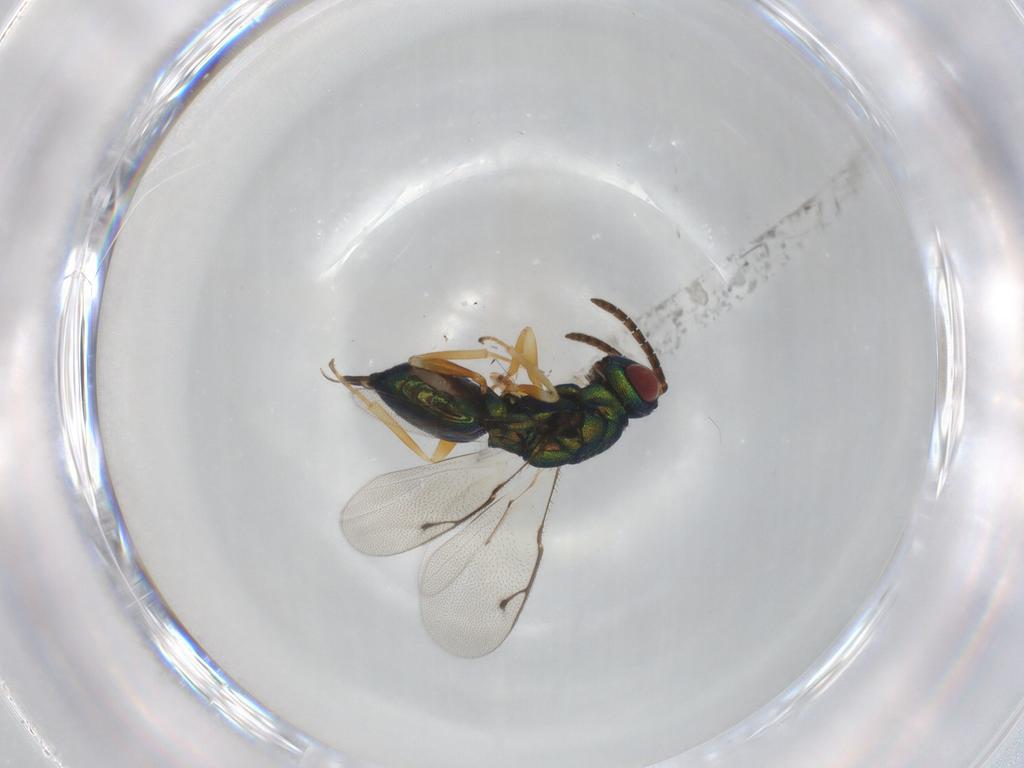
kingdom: Animalia
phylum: Arthropoda
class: Insecta
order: Hymenoptera
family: Pteromalidae
